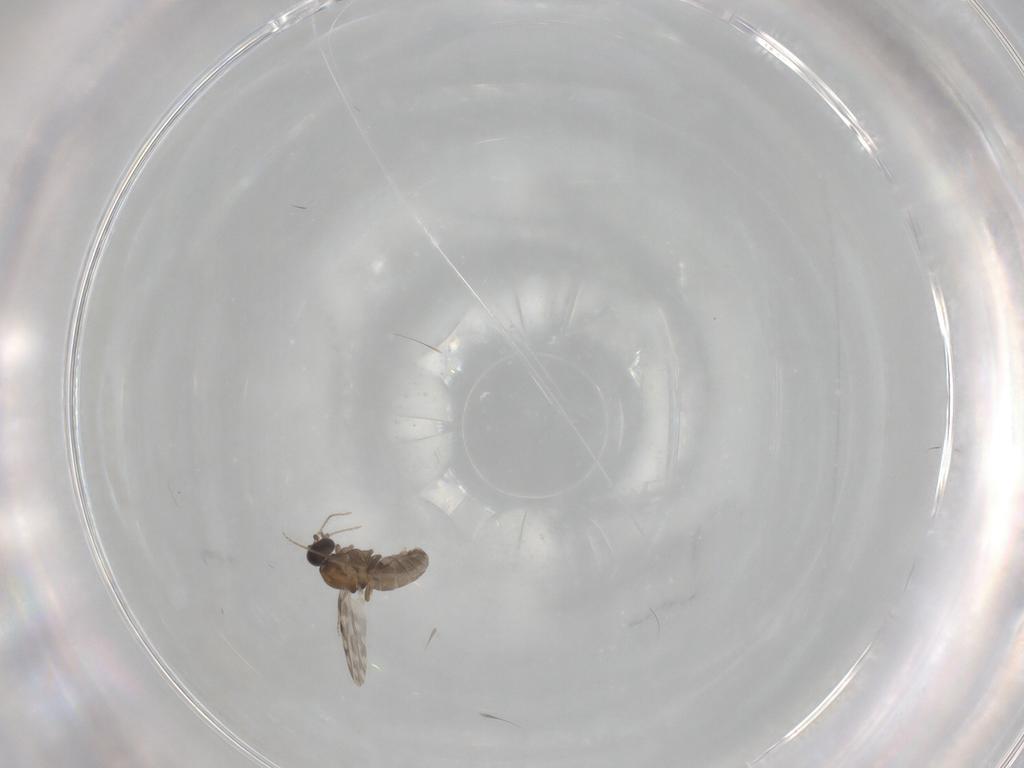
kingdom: Animalia
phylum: Arthropoda
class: Insecta
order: Diptera
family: Ceratopogonidae
